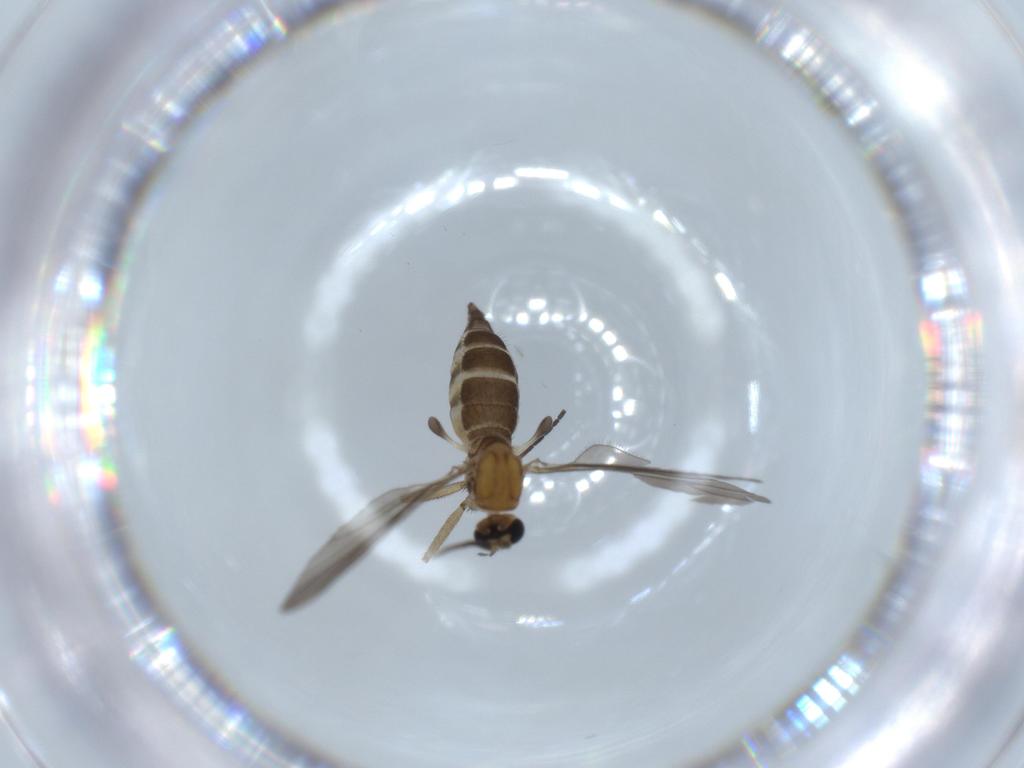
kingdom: Animalia
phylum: Arthropoda
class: Insecta
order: Diptera
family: Sciaridae
